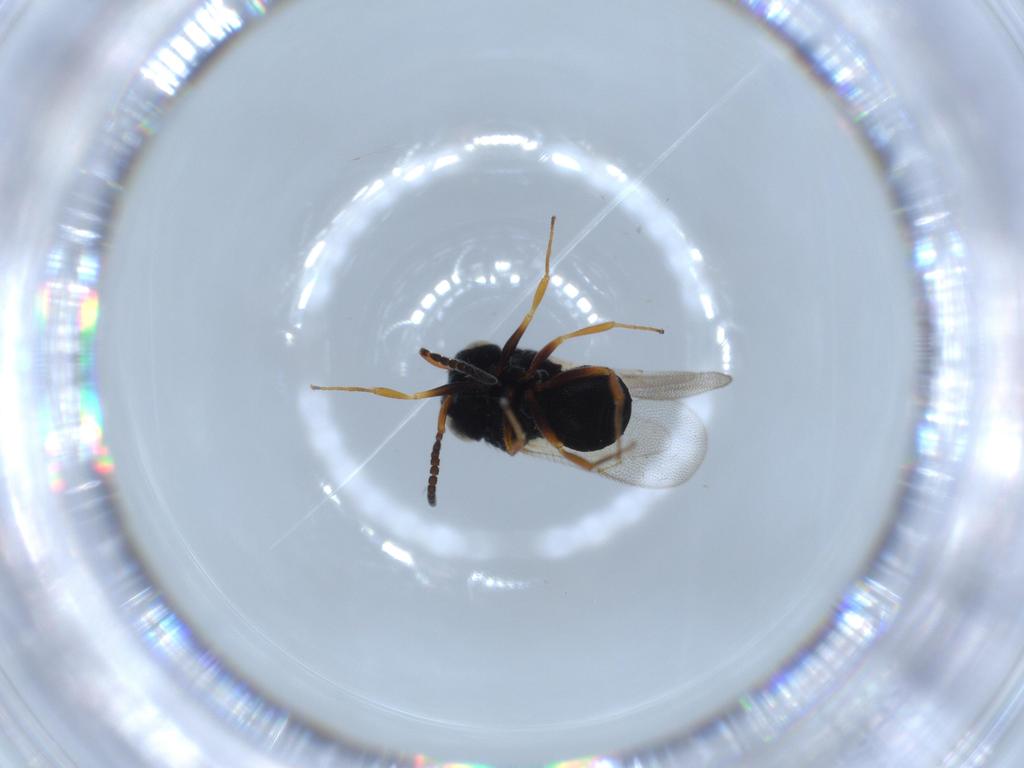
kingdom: Animalia
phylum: Arthropoda
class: Insecta
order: Hymenoptera
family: Scelionidae
